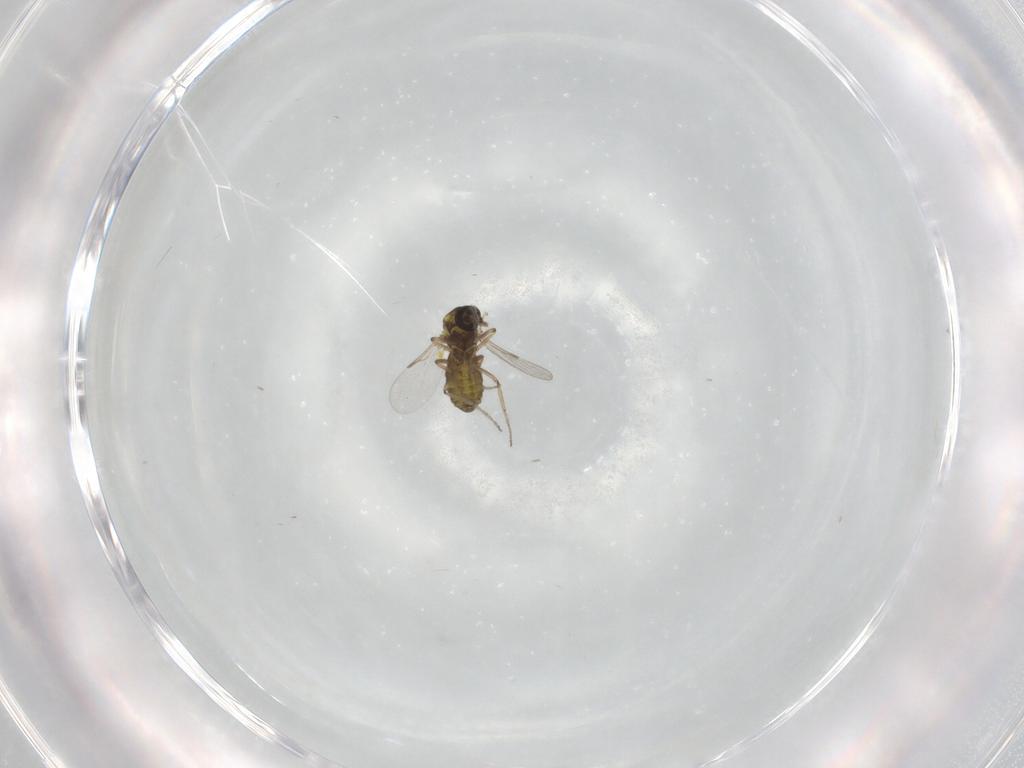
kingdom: Animalia
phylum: Arthropoda
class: Insecta
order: Diptera
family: Ceratopogonidae
